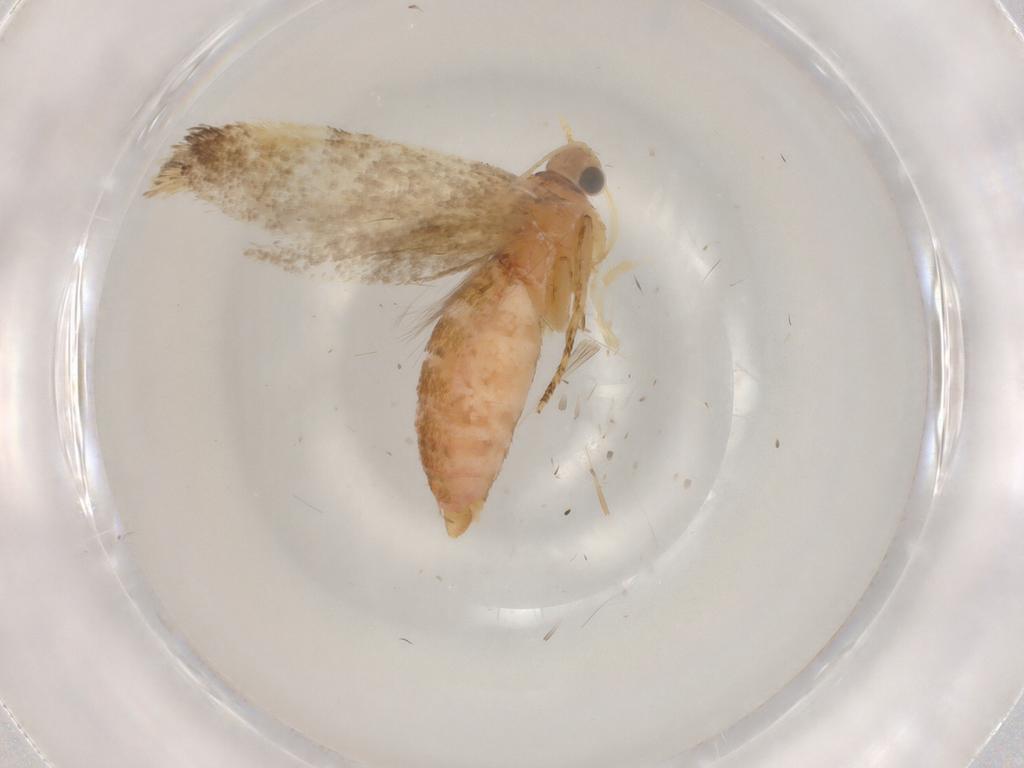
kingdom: Animalia
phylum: Arthropoda
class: Insecta
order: Lepidoptera
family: Autostichidae
